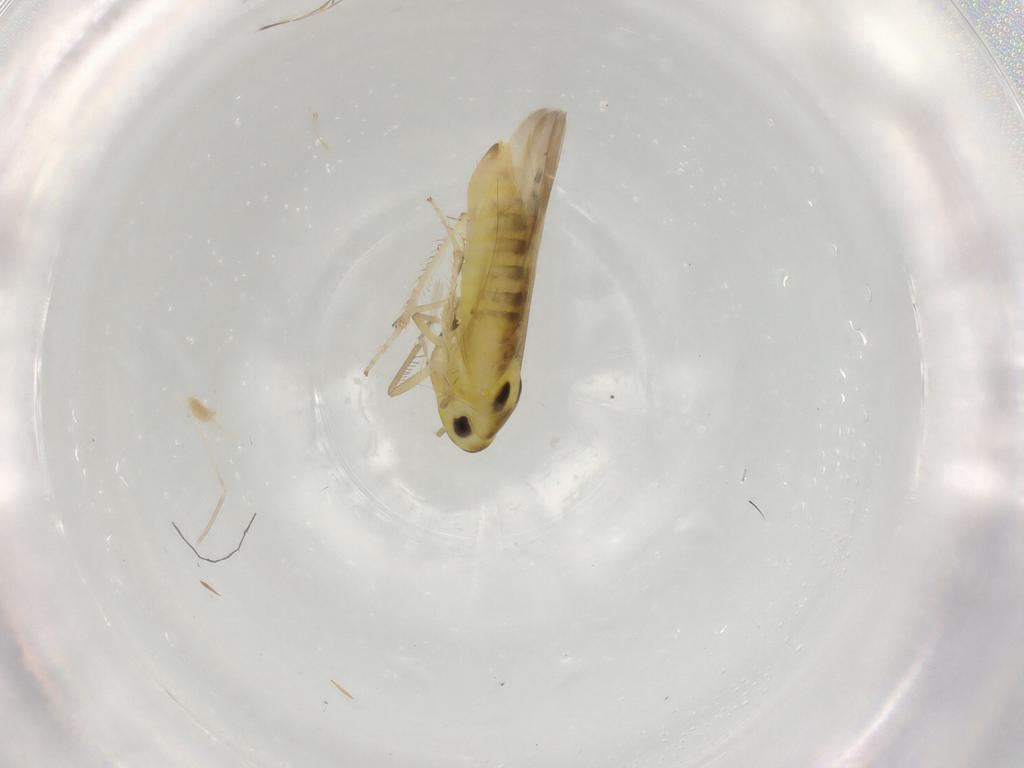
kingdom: Animalia
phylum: Arthropoda
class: Insecta
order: Hemiptera
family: Cicadellidae
